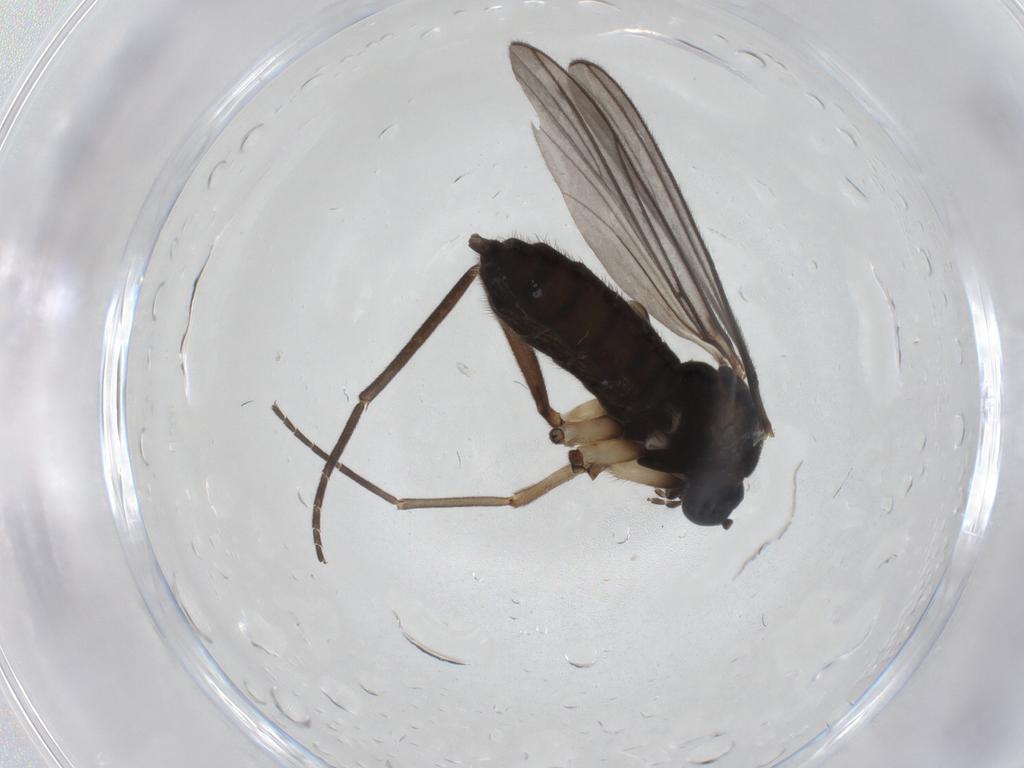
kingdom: Animalia
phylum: Arthropoda
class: Insecta
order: Diptera
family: Sciaridae
